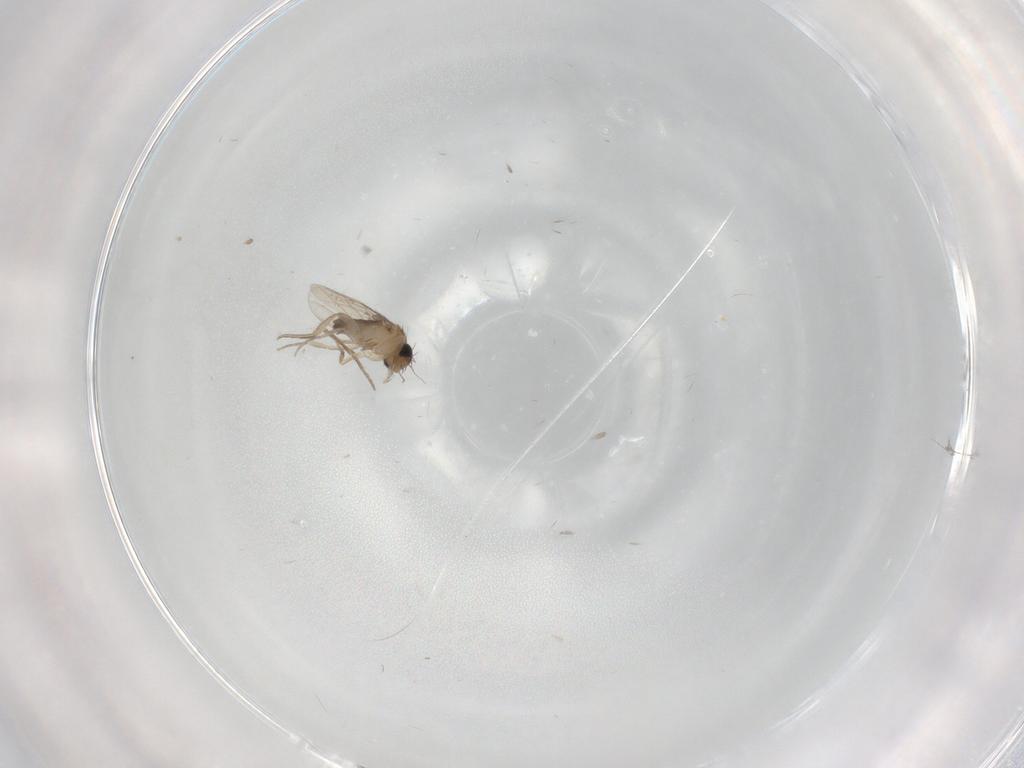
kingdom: Animalia
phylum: Arthropoda
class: Insecta
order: Diptera
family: Phoridae
